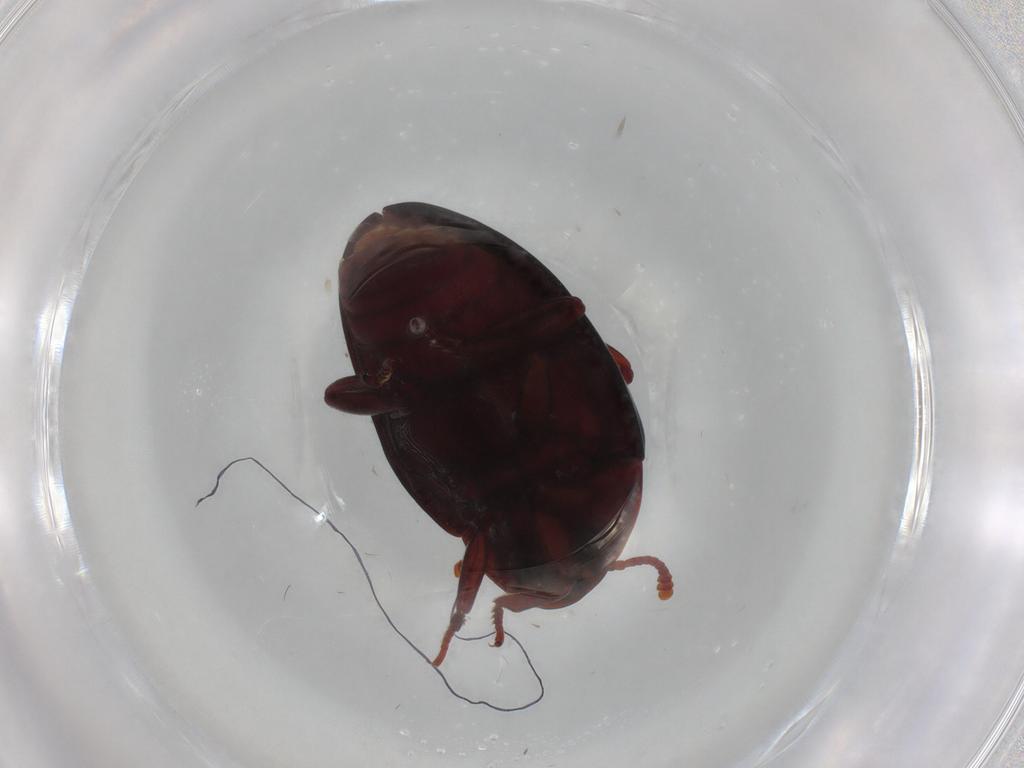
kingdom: Animalia
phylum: Arthropoda
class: Insecta
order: Coleoptera
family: Zopheridae
